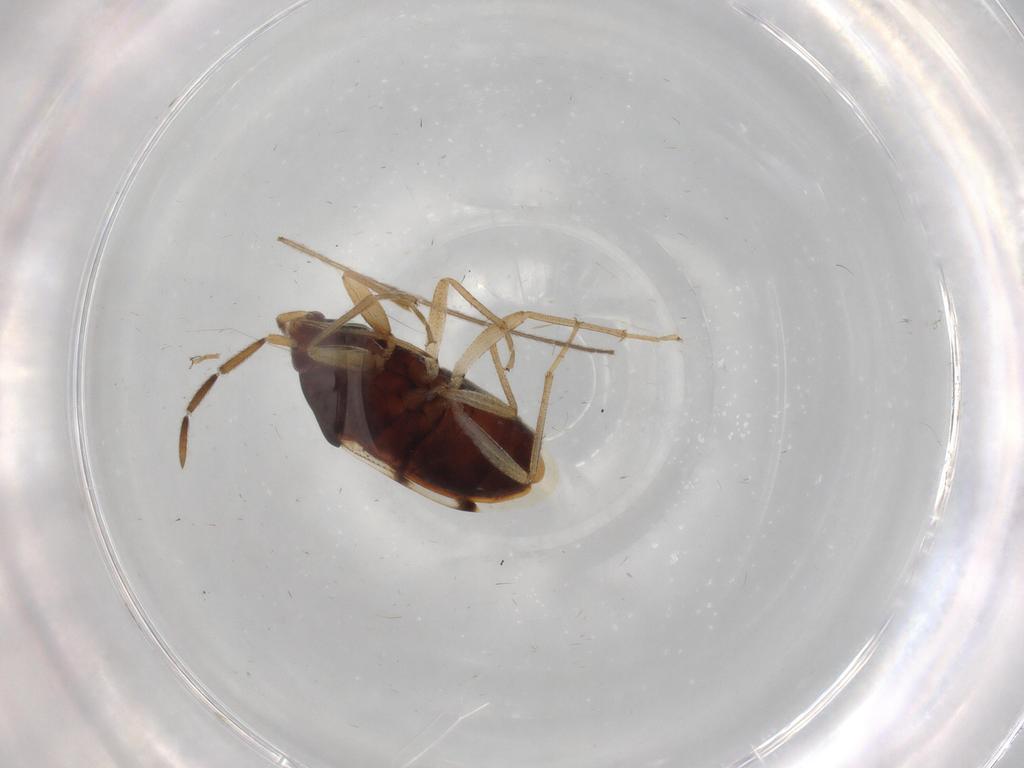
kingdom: Animalia
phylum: Arthropoda
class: Insecta
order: Hemiptera
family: Rhyparochromidae
